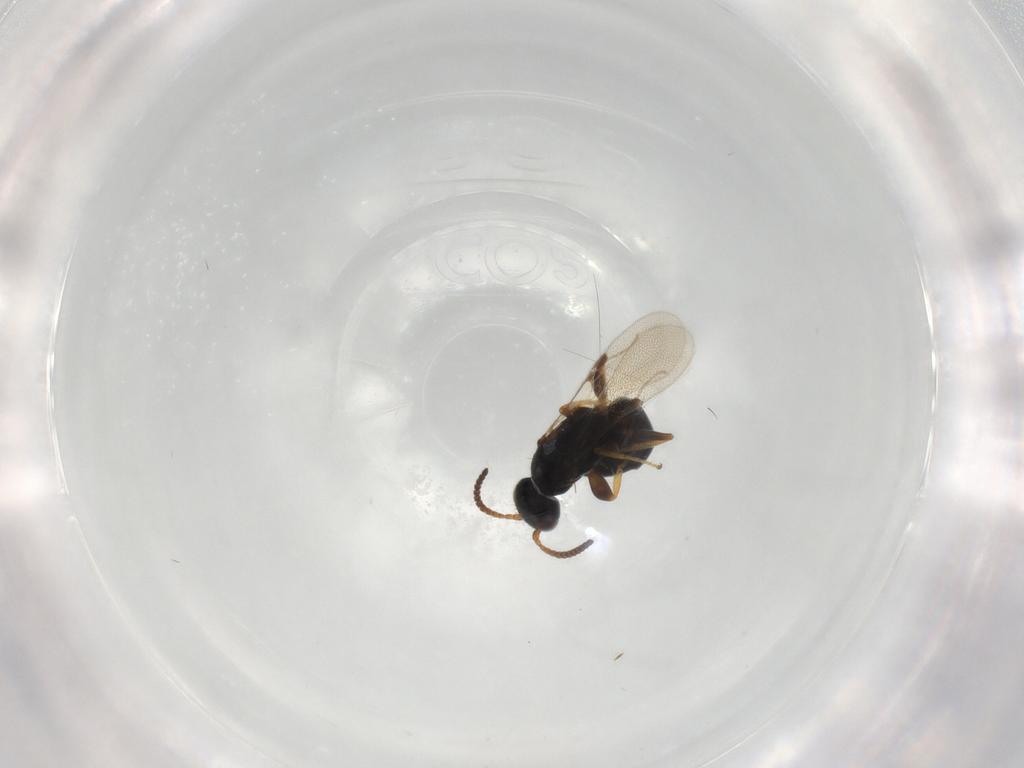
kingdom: Animalia
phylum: Arthropoda
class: Insecta
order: Hymenoptera
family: Bethylidae
